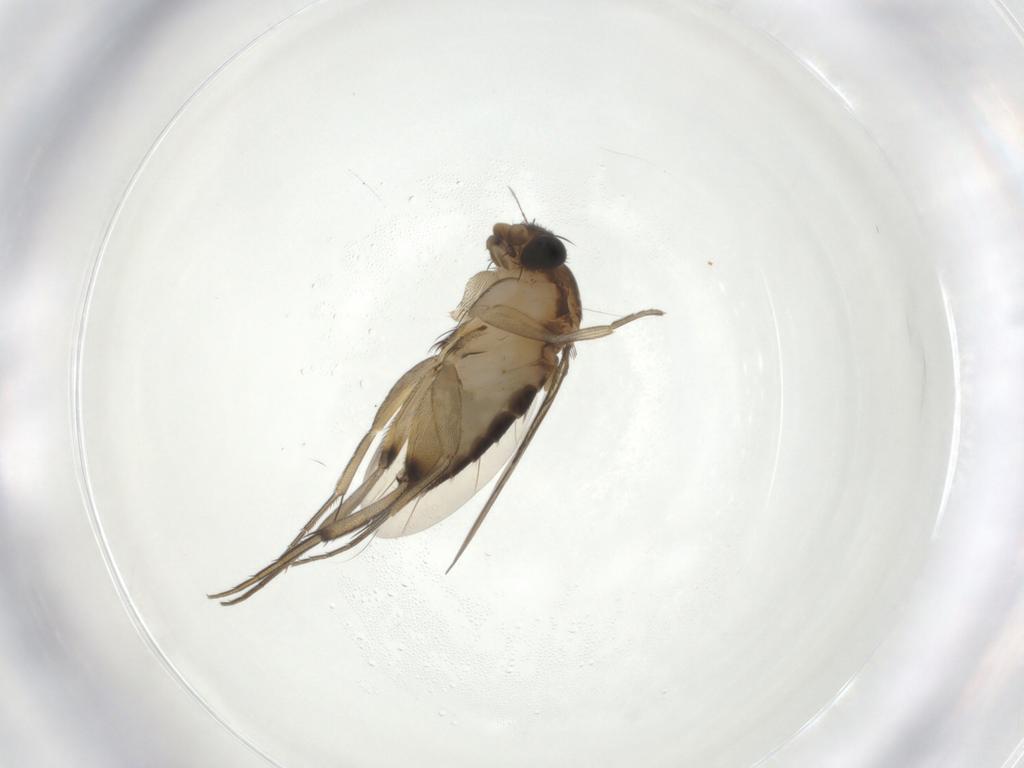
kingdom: Animalia
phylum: Arthropoda
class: Insecta
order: Diptera
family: Phoridae
